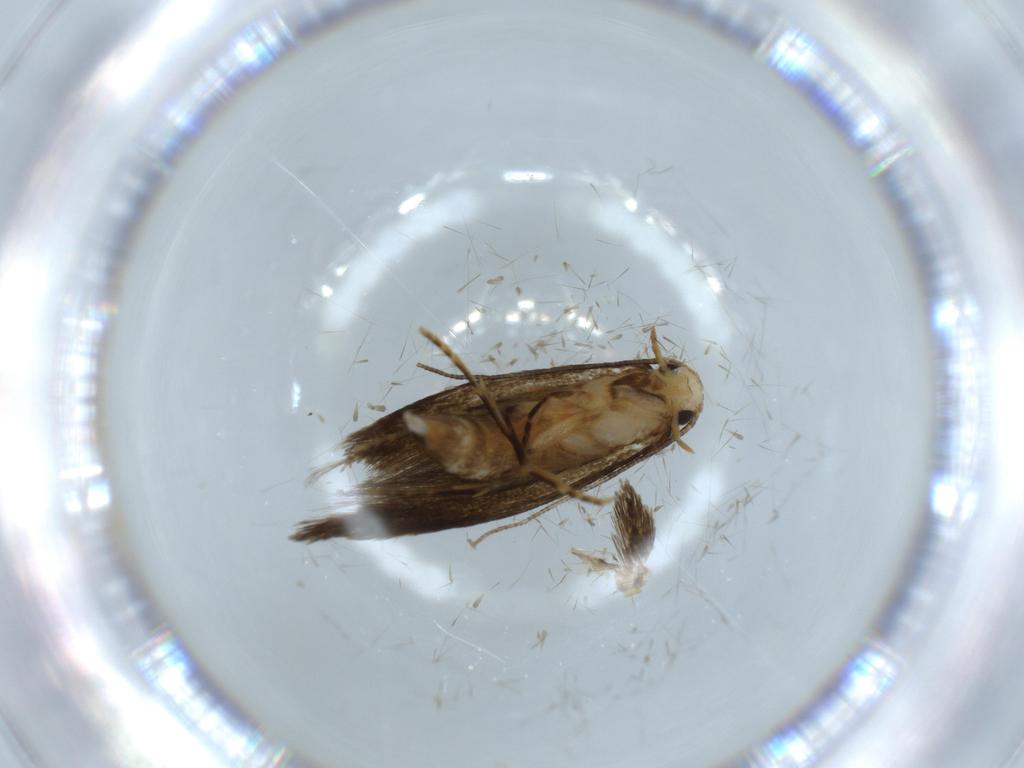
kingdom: Animalia
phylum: Arthropoda
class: Insecta
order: Lepidoptera
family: Tineidae
